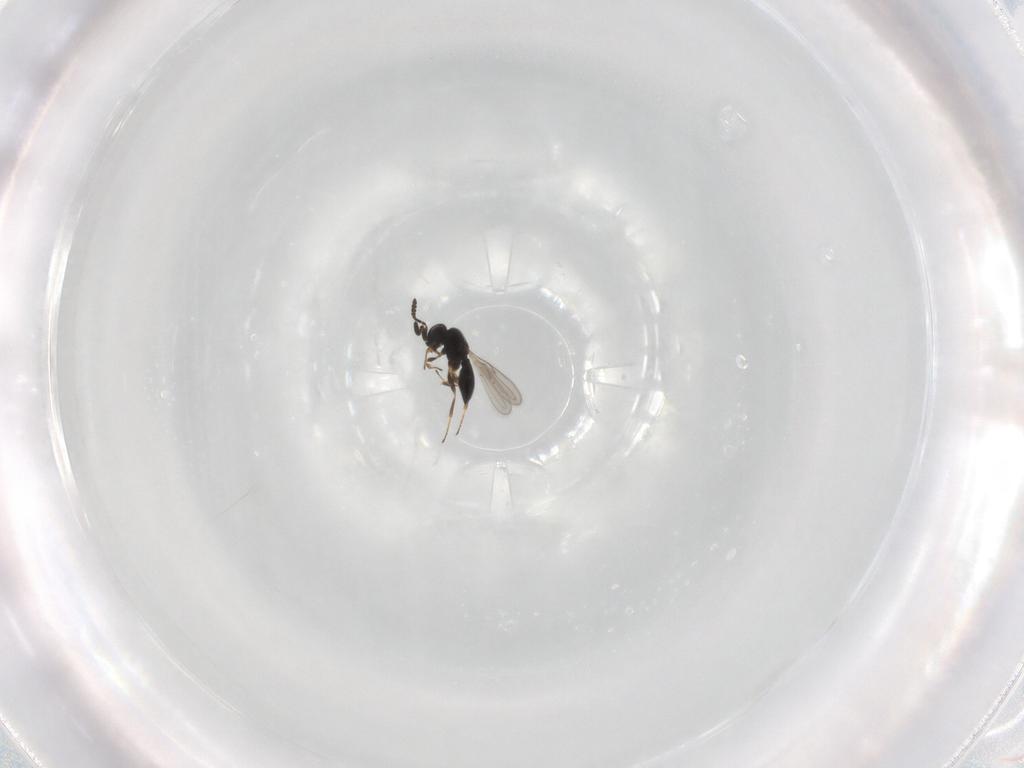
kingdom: Animalia
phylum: Arthropoda
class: Insecta
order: Hymenoptera
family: Scelionidae
